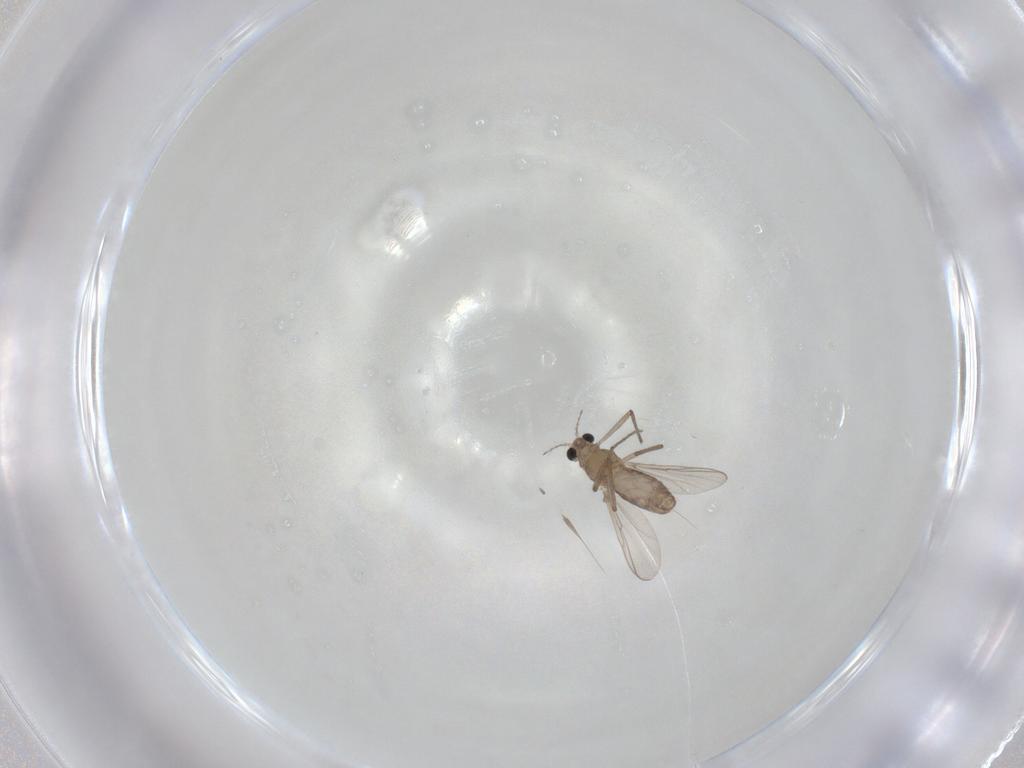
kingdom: Animalia
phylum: Arthropoda
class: Insecta
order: Diptera
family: Chironomidae
